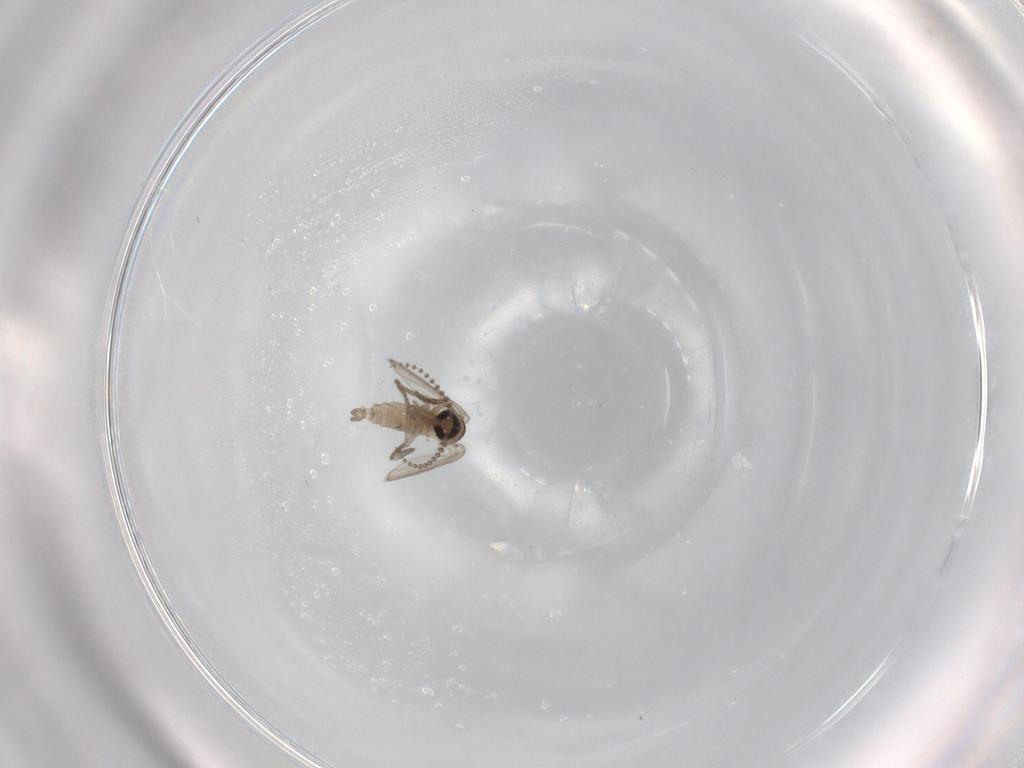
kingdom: Animalia
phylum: Arthropoda
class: Insecta
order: Diptera
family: Psychodidae
